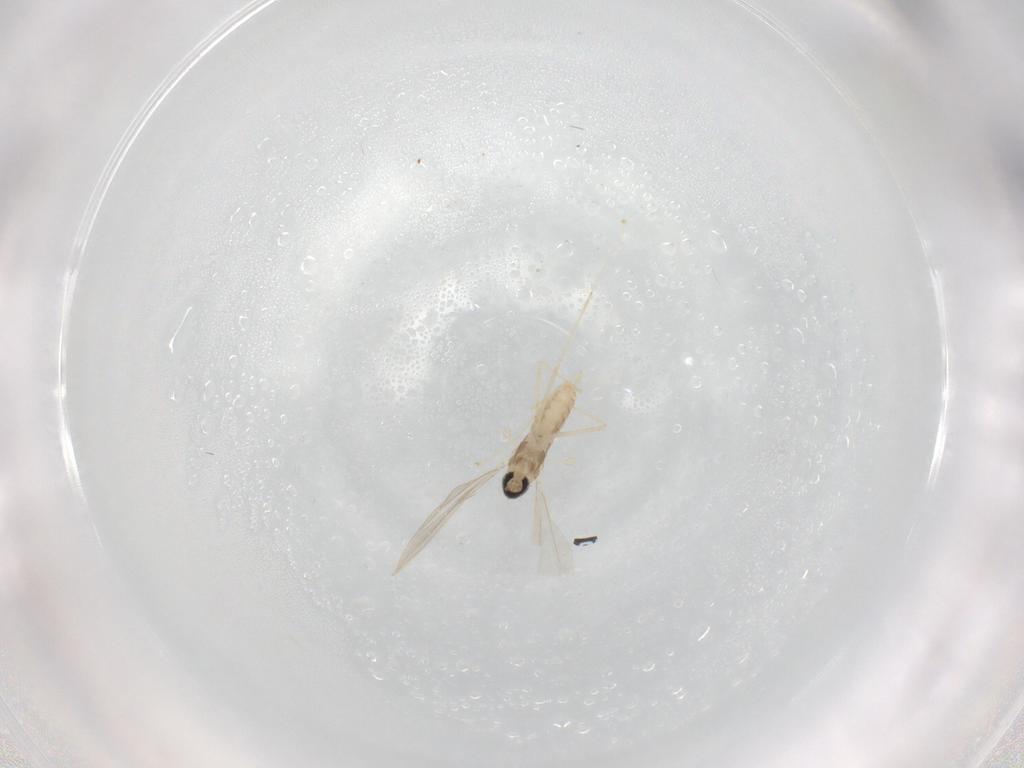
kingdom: Animalia
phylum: Arthropoda
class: Insecta
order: Diptera
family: Cecidomyiidae
